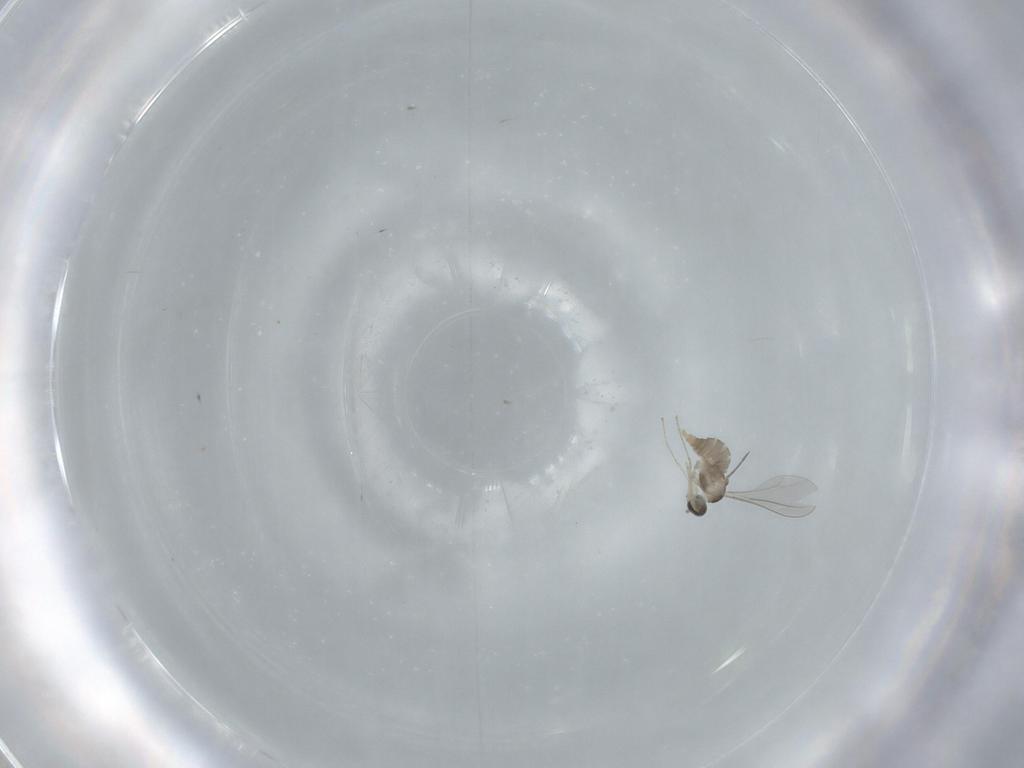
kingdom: Animalia
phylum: Arthropoda
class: Insecta
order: Diptera
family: Cecidomyiidae
